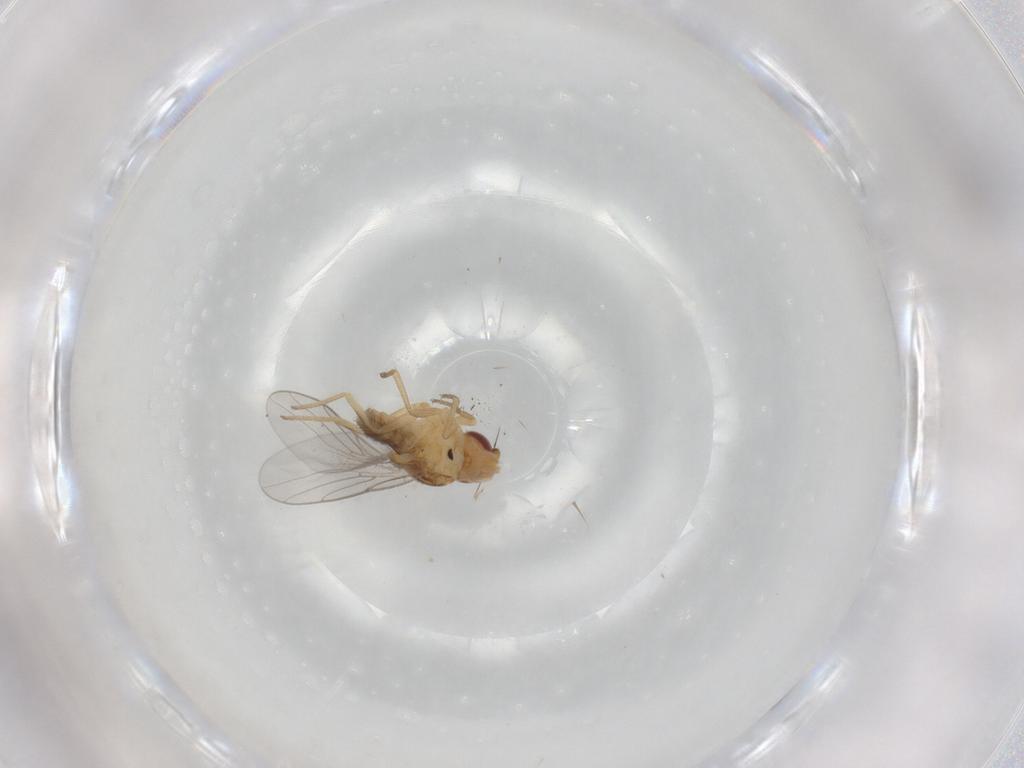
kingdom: Animalia
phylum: Arthropoda
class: Insecta
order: Diptera
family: Chloropidae
